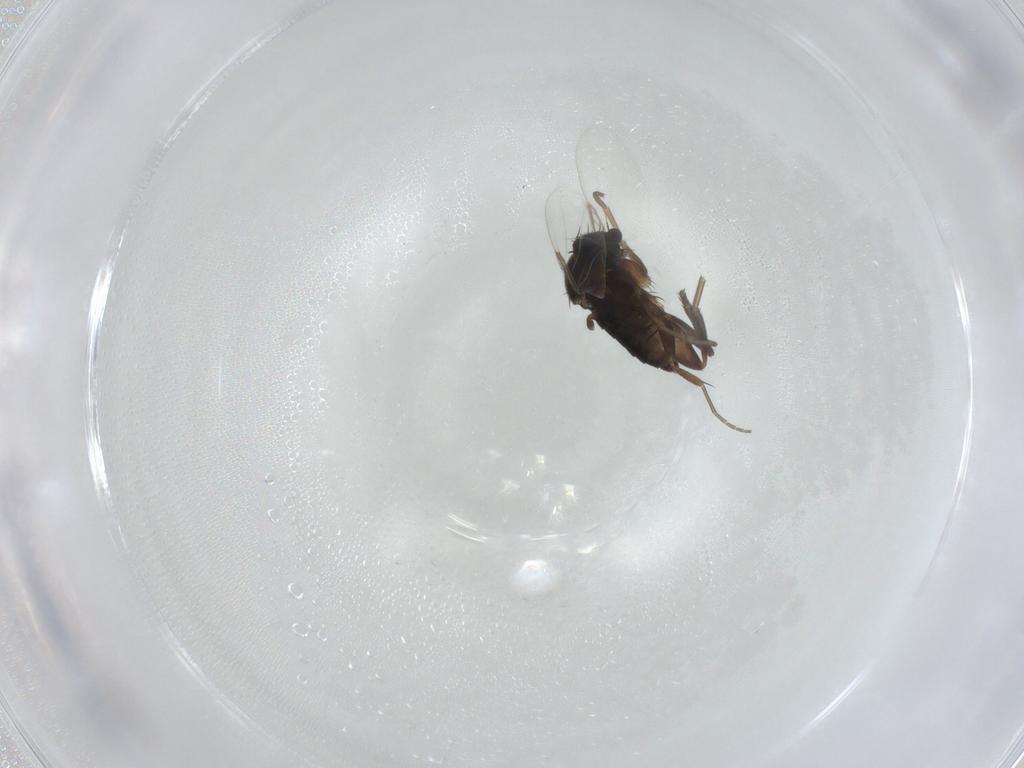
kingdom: Animalia
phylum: Arthropoda
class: Insecta
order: Diptera
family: Phoridae
